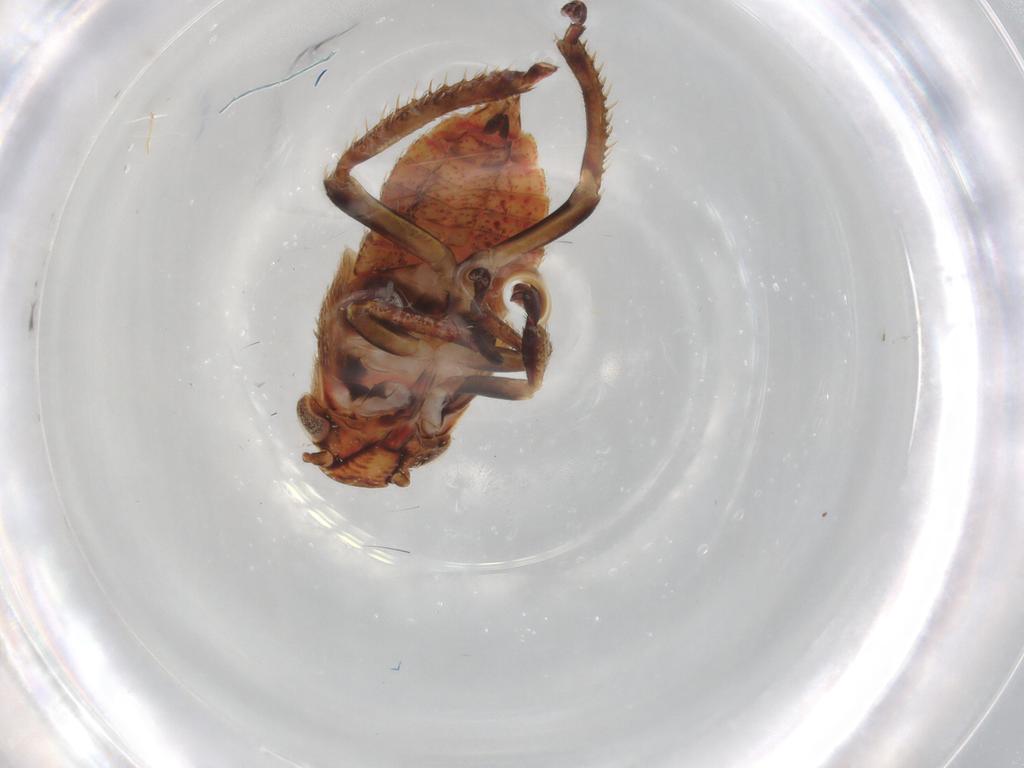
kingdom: Animalia
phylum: Arthropoda
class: Insecta
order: Hemiptera
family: Cicadellidae
